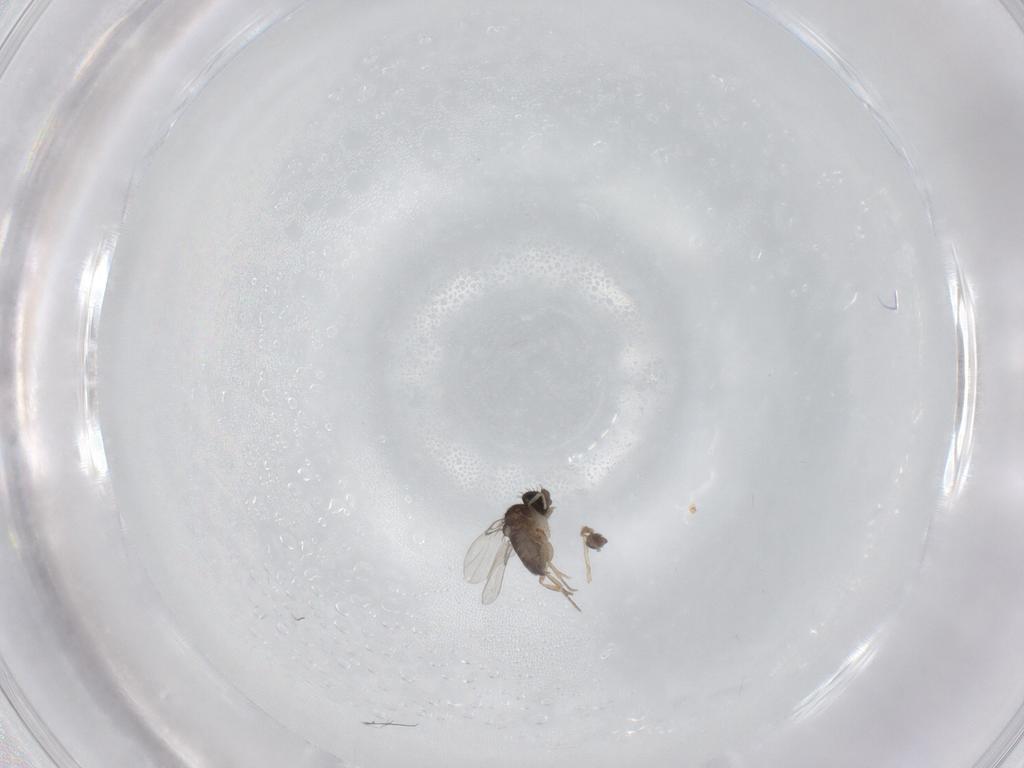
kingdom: Animalia
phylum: Arthropoda
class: Insecta
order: Diptera
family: Phoridae
